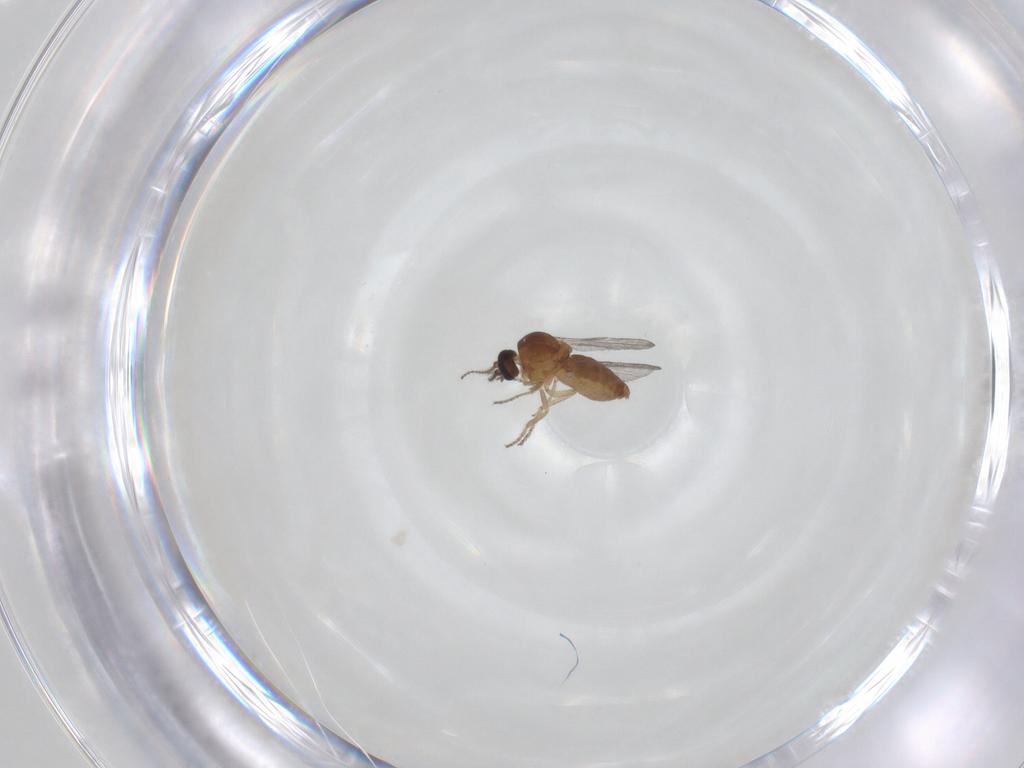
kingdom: Animalia
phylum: Arthropoda
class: Insecta
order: Diptera
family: Ceratopogonidae
